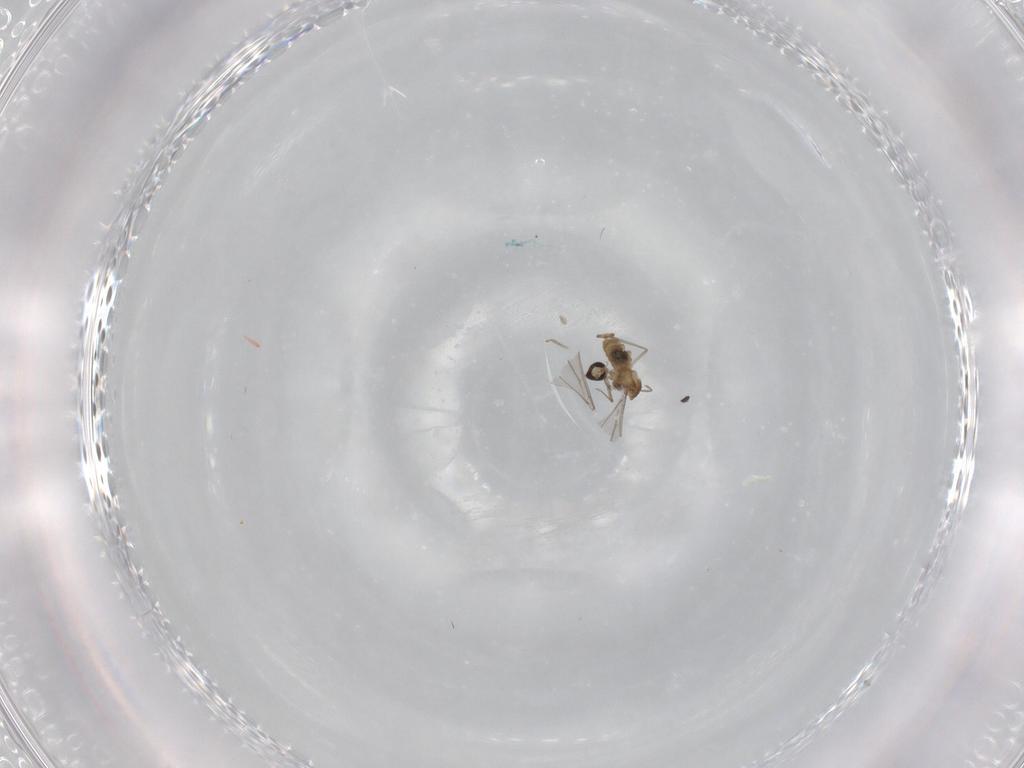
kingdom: Animalia
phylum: Arthropoda
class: Insecta
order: Diptera
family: Cecidomyiidae
